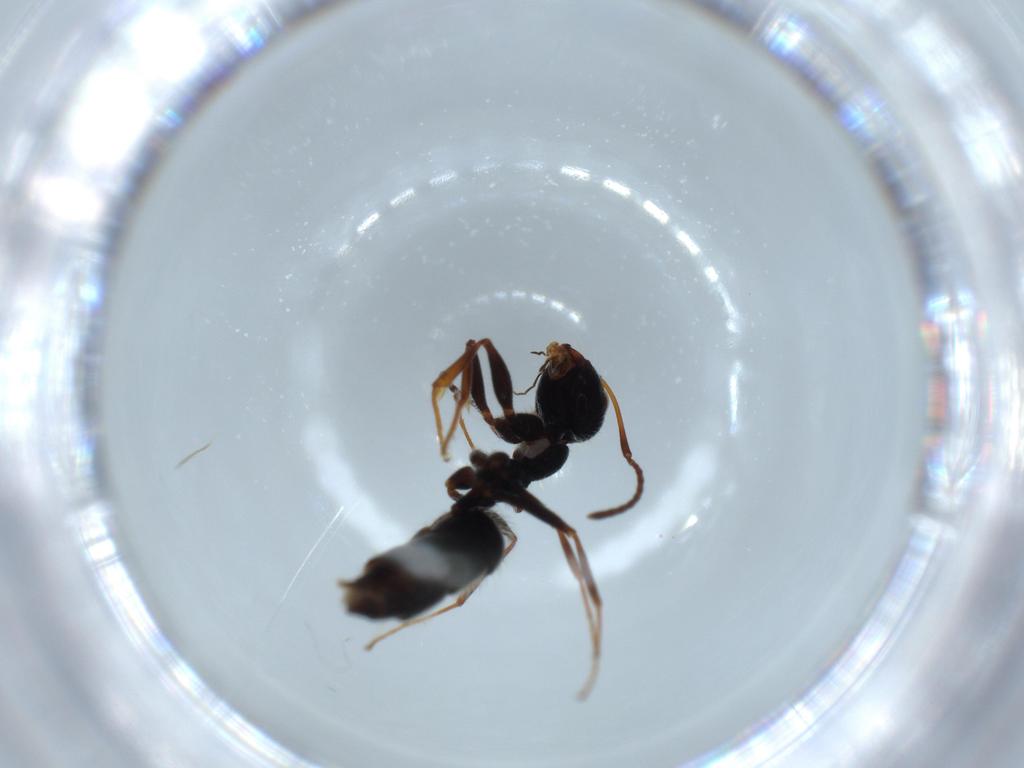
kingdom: Animalia
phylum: Arthropoda
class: Insecta
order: Hymenoptera
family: Formicidae
